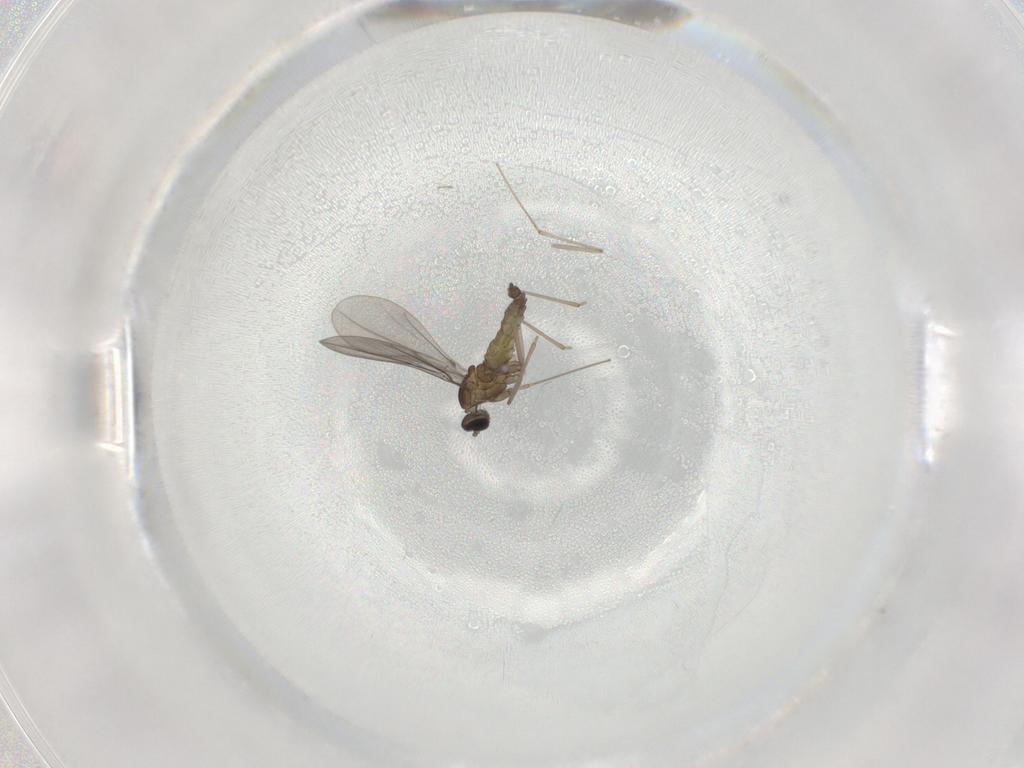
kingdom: Animalia
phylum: Arthropoda
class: Insecta
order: Diptera
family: Cecidomyiidae
